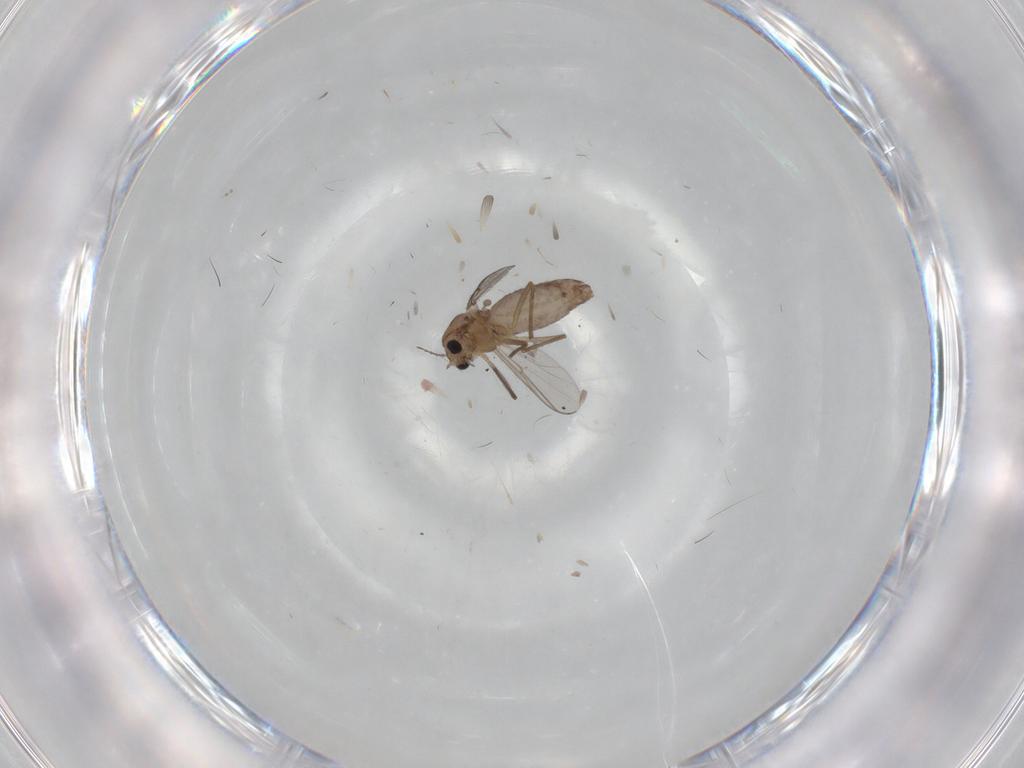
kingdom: Animalia
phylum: Arthropoda
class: Insecta
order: Diptera
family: Chironomidae
